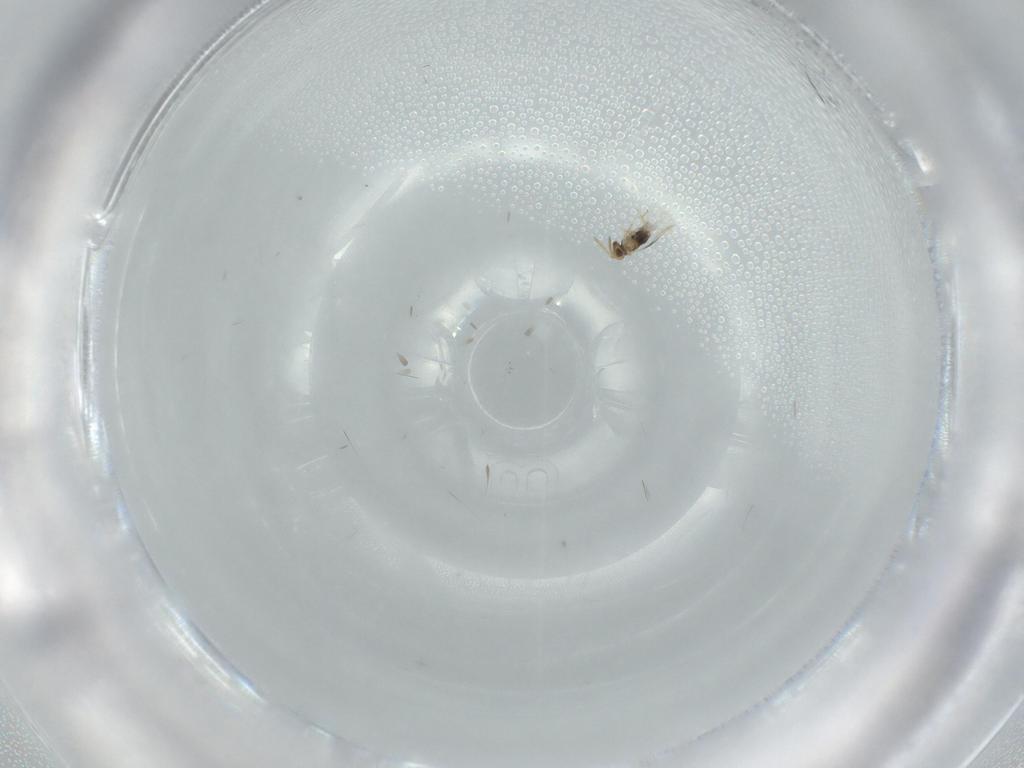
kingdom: Animalia
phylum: Arthropoda
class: Insecta
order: Hymenoptera
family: Aphelinidae
